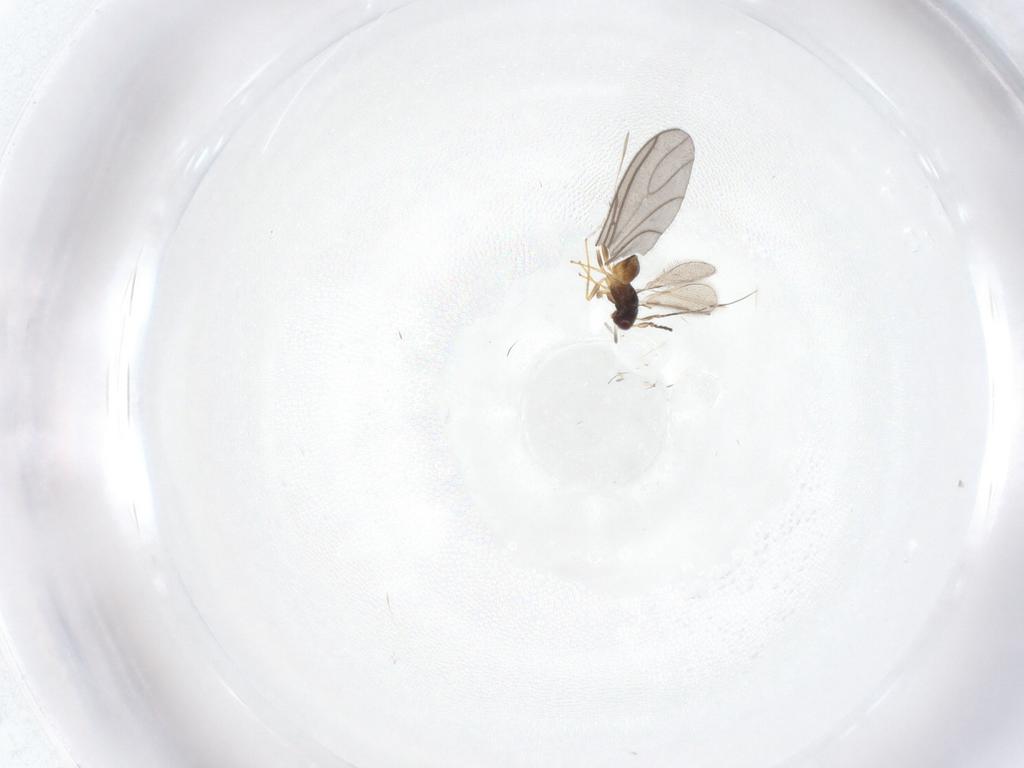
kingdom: Animalia
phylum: Arthropoda
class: Insecta
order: Diptera
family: Sciaridae
